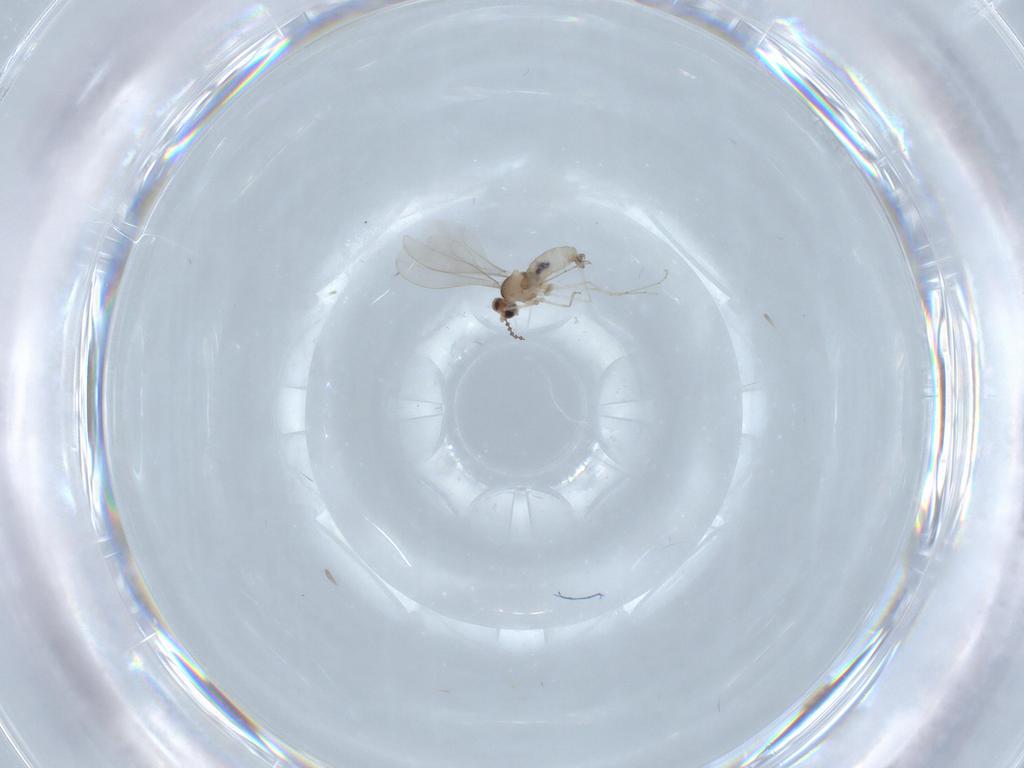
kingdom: Animalia
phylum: Arthropoda
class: Insecta
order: Diptera
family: Cecidomyiidae
